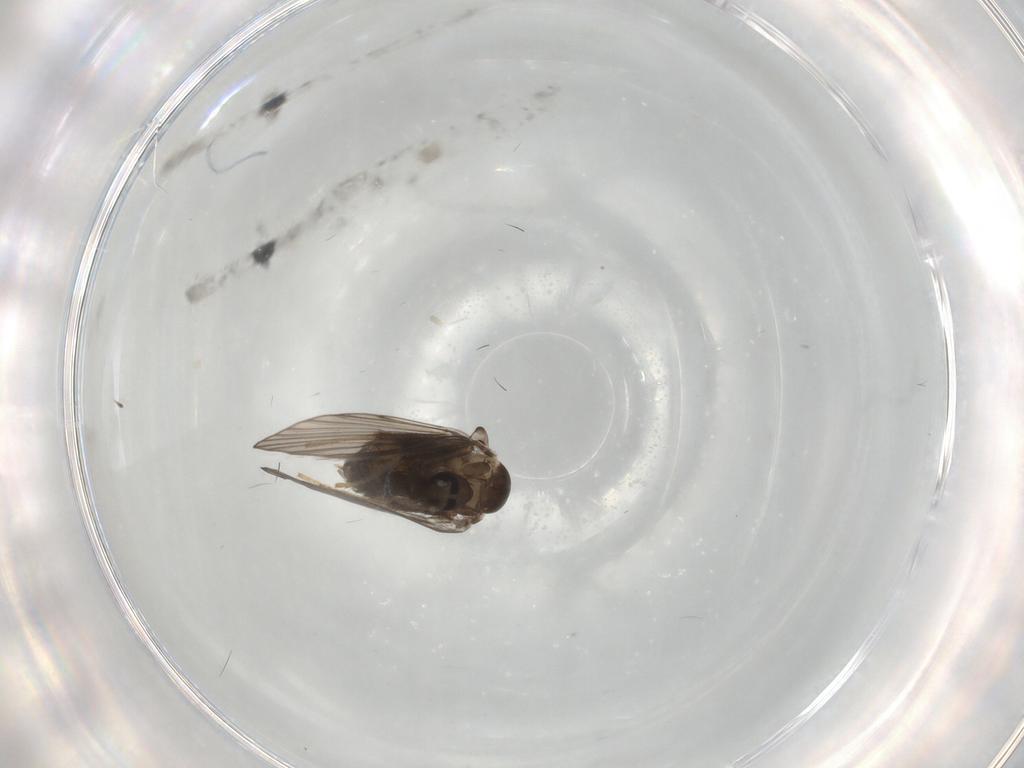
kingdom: Animalia
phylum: Arthropoda
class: Insecta
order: Diptera
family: Psychodidae
